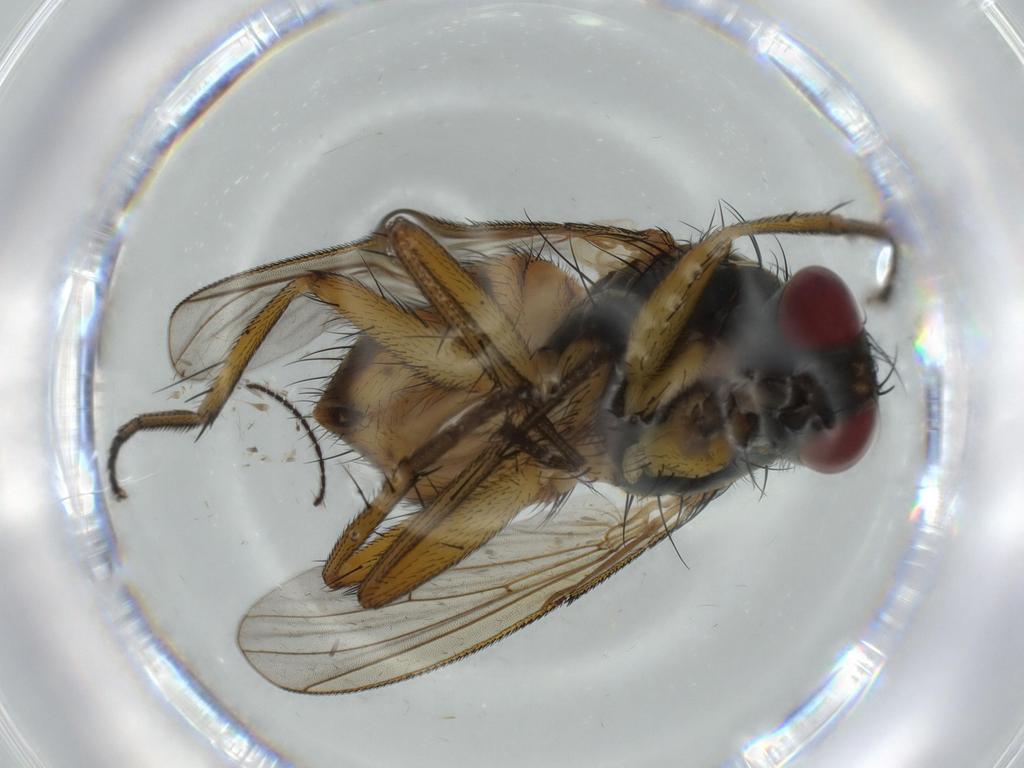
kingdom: Animalia
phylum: Arthropoda
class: Insecta
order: Diptera
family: Muscidae
